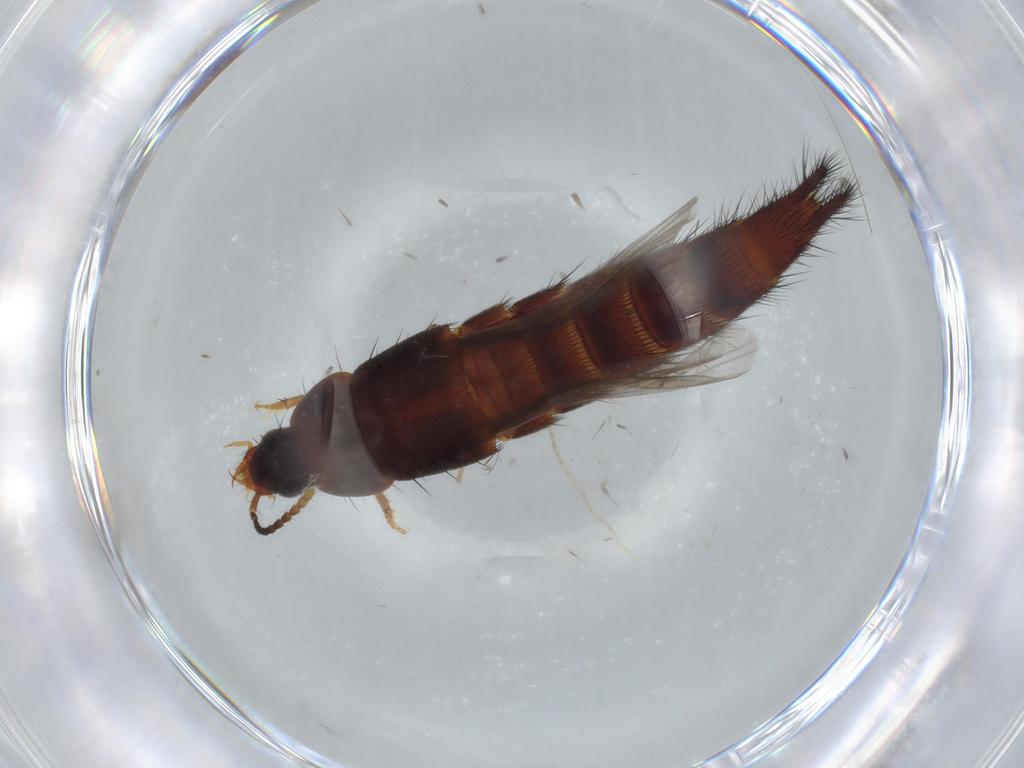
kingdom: Animalia
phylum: Arthropoda
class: Insecta
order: Coleoptera
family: Staphylinidae
